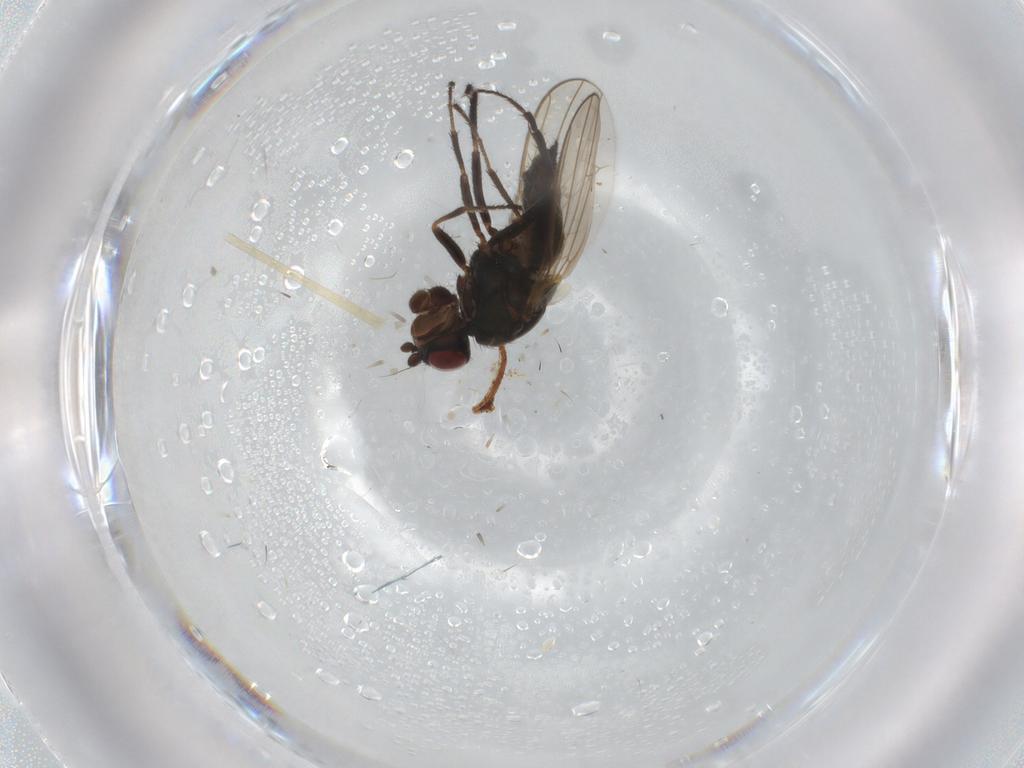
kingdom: Animalia
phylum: Arthropoda
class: Insecta
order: Diptera
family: Sphaeroceridae
